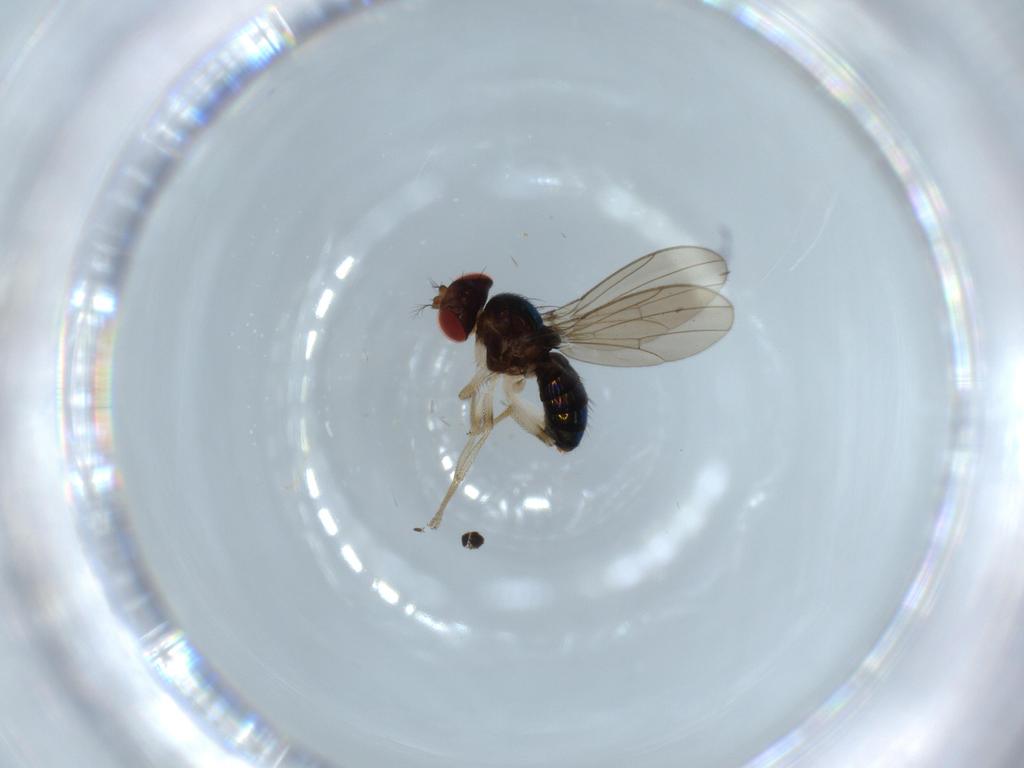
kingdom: Animalia
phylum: Arthropoda
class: Insecta
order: Diptera
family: Drosophilidae
